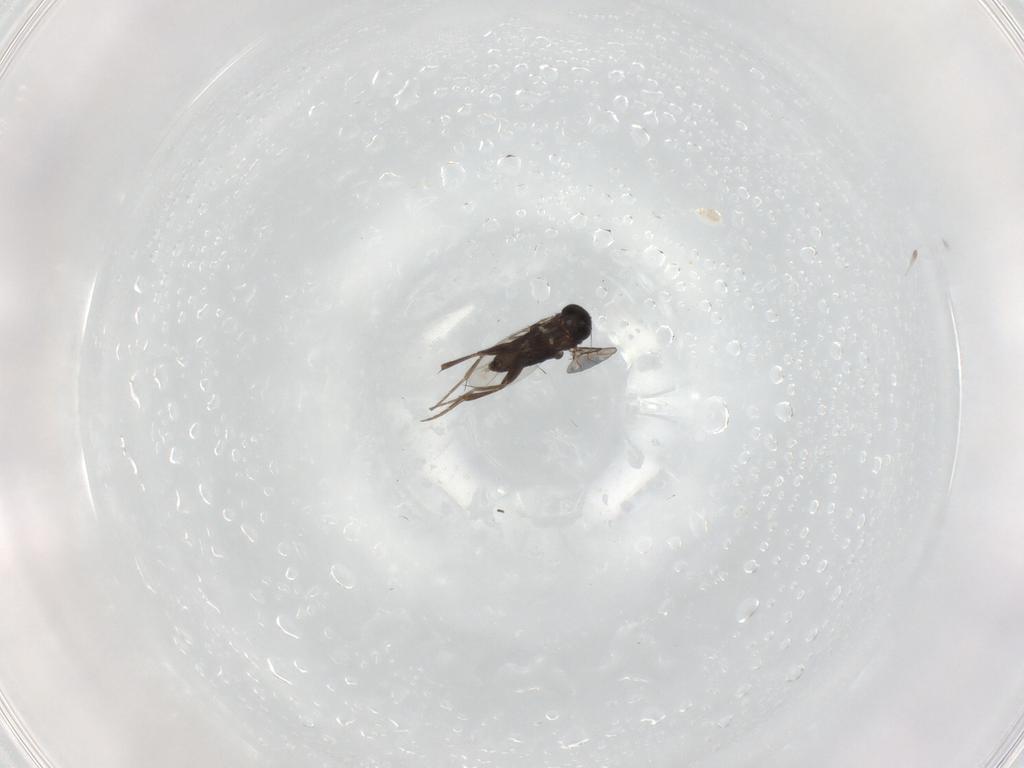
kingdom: Animalia
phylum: Arthropoda
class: Insecta
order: Diptera
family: Phoridae
